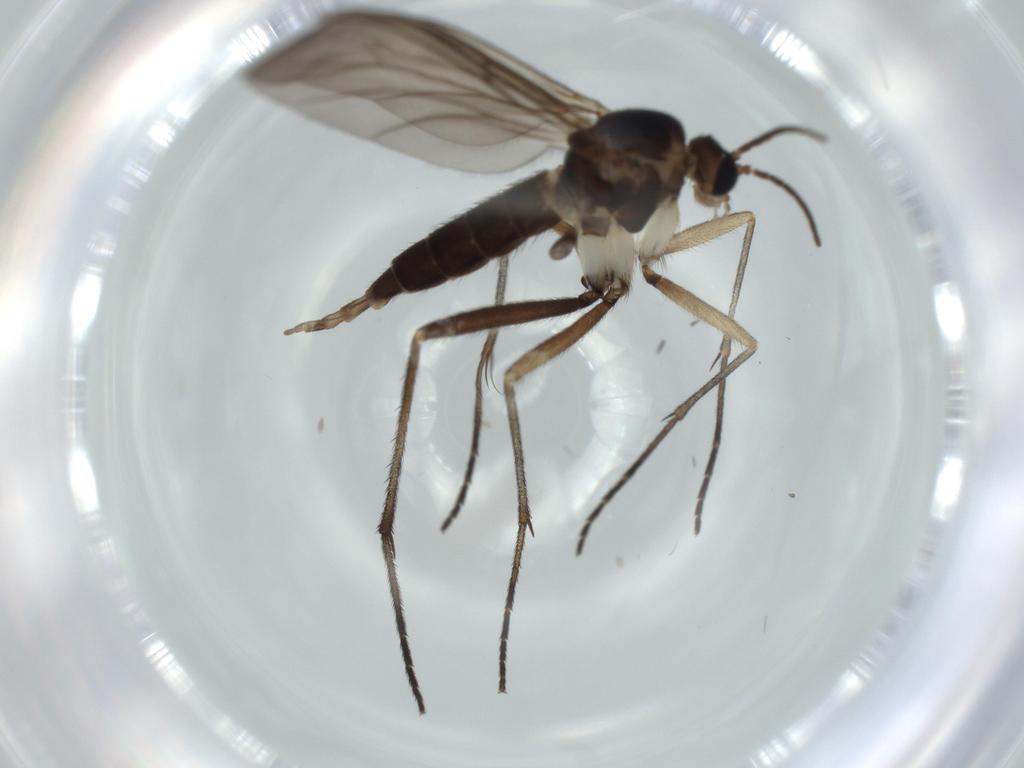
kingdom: Animalia
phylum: Arthropoda
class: Insecta
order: Diptera
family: Sciaridae
